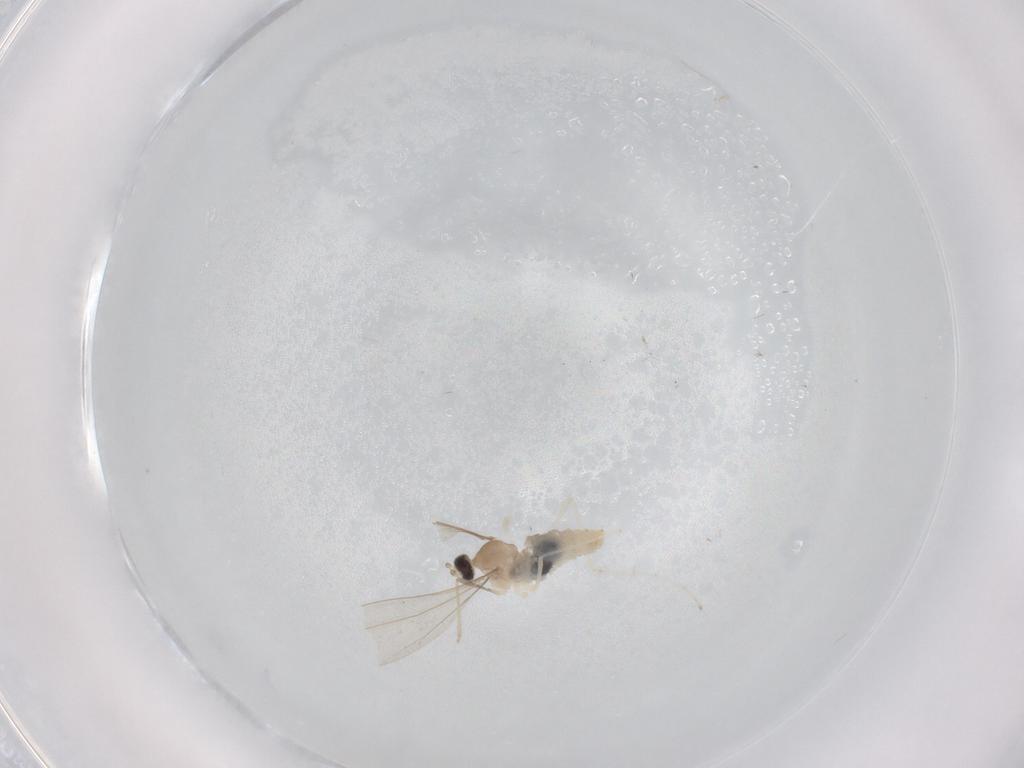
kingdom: Animalia
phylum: Arthropoda
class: Insecta
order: Diptera
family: Cecidomyiidae
